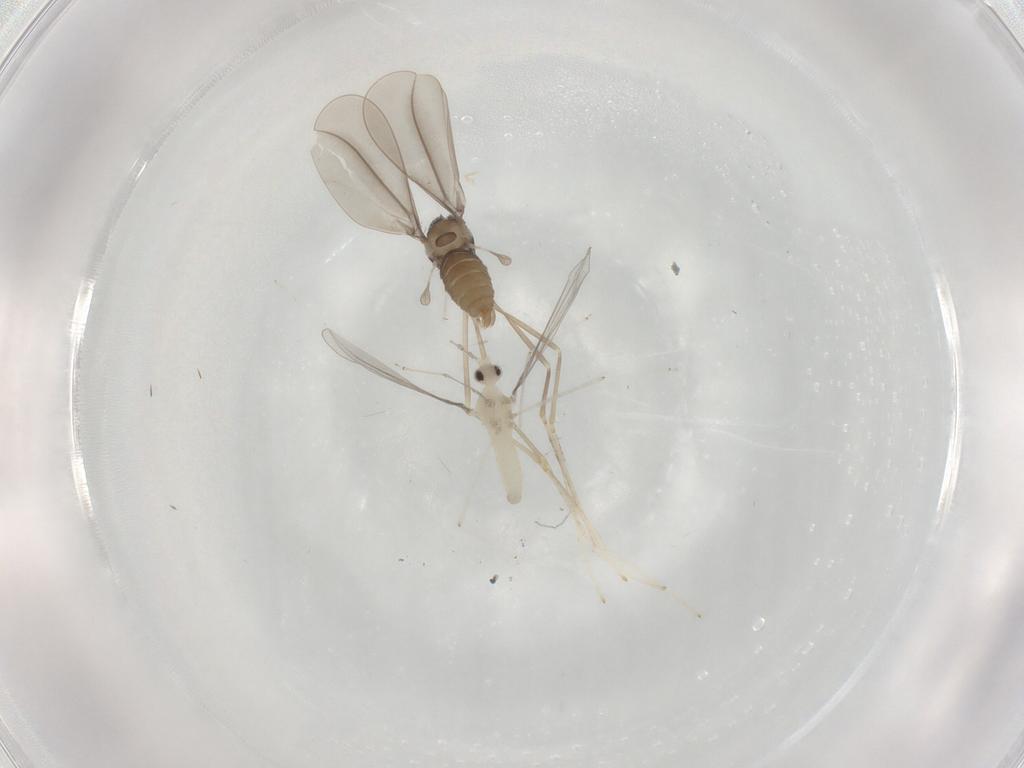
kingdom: Animalia
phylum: Arthropoda
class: Insecta
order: Diptera
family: Cecidomyiidae
